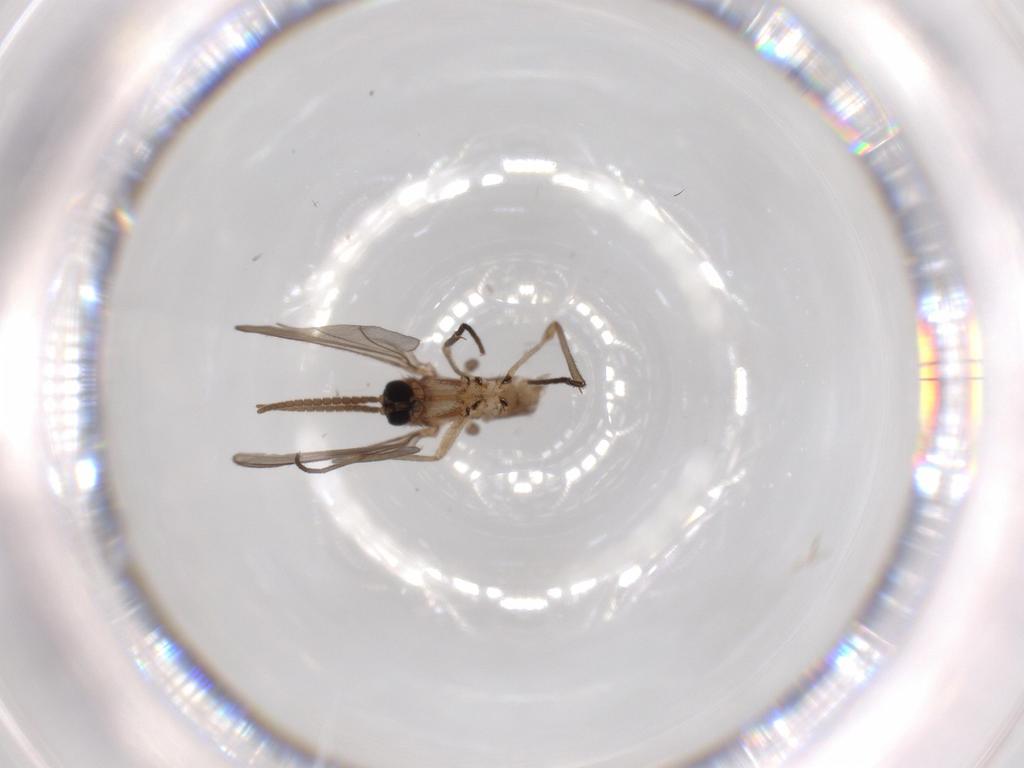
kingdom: Animalia
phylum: Arthropoda
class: Insecta
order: Diptera
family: Sciaridae
